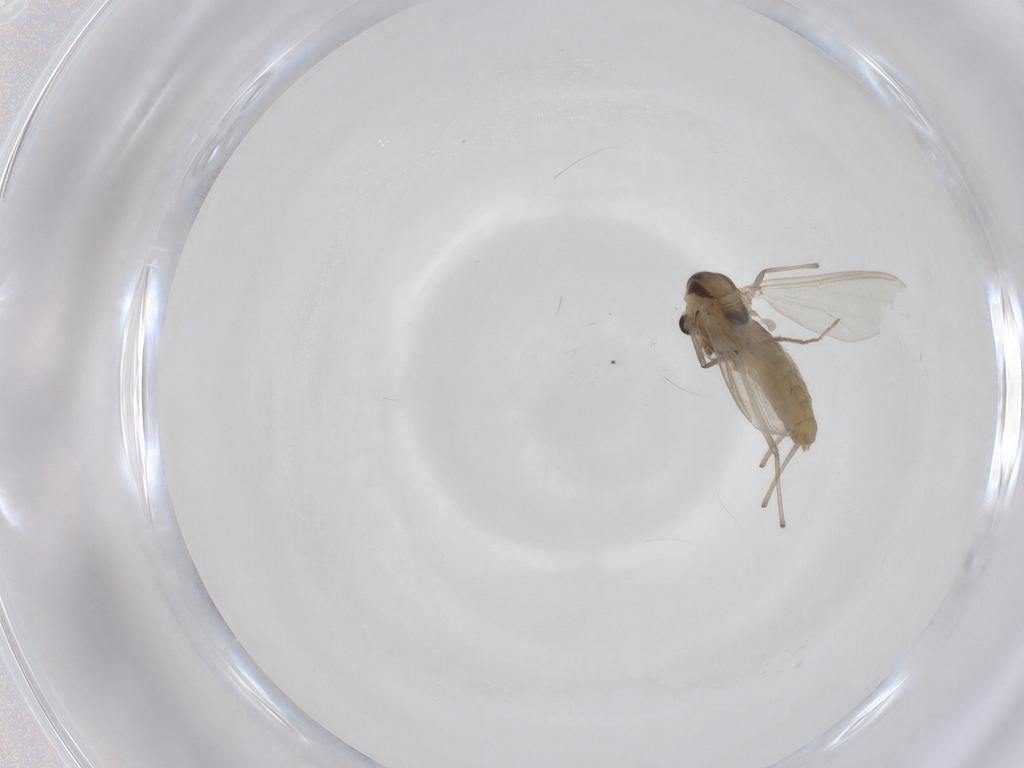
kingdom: Animalia
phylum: Arthropoda
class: Insecta
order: Diptera
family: Chironomidae
